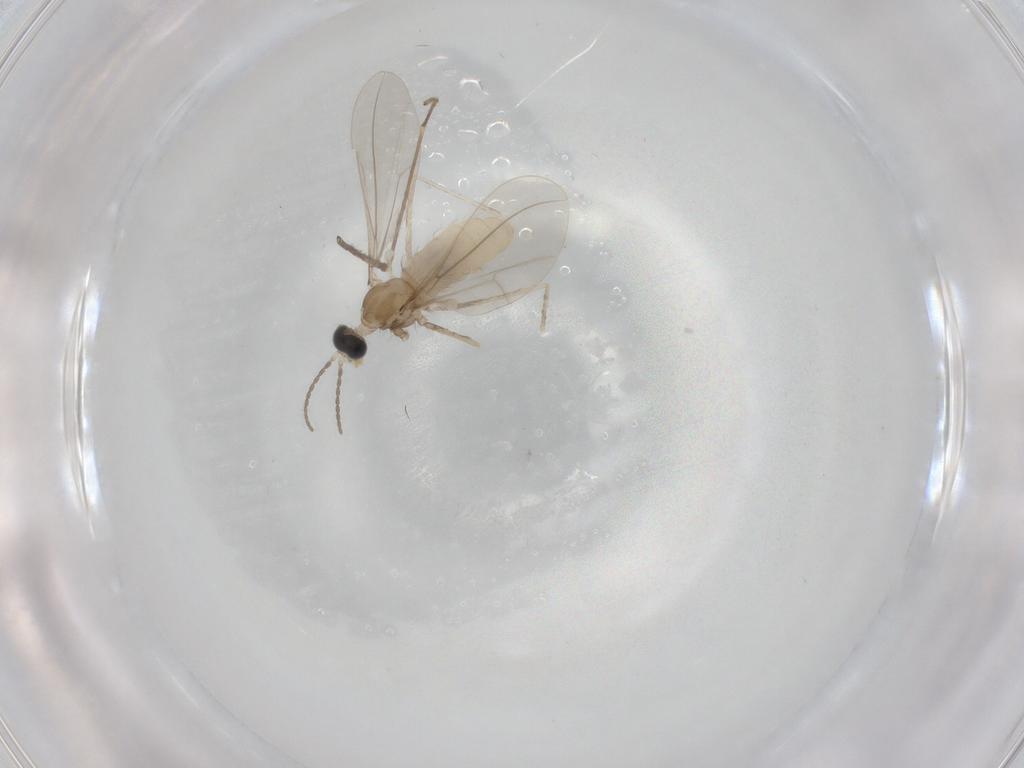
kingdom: Animalia
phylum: Arthropoda
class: Insecta
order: Diptera
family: Limoniidae
